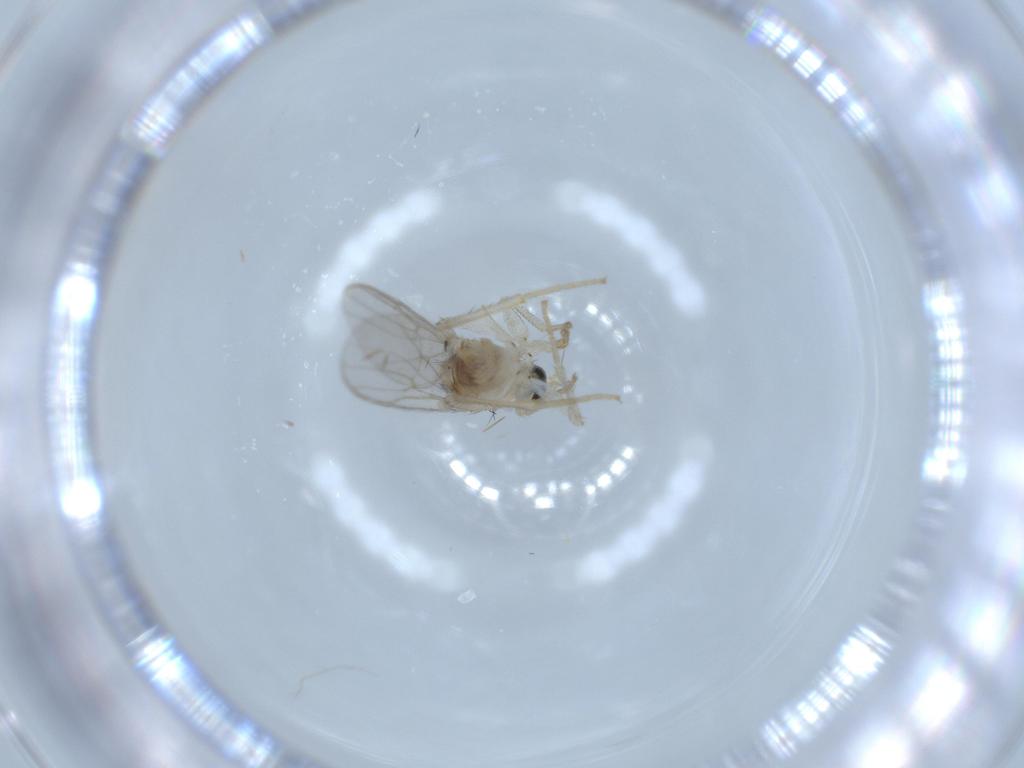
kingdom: Animalia
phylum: Arthropoda
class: Insecta
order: Diptera
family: Hybotidae
